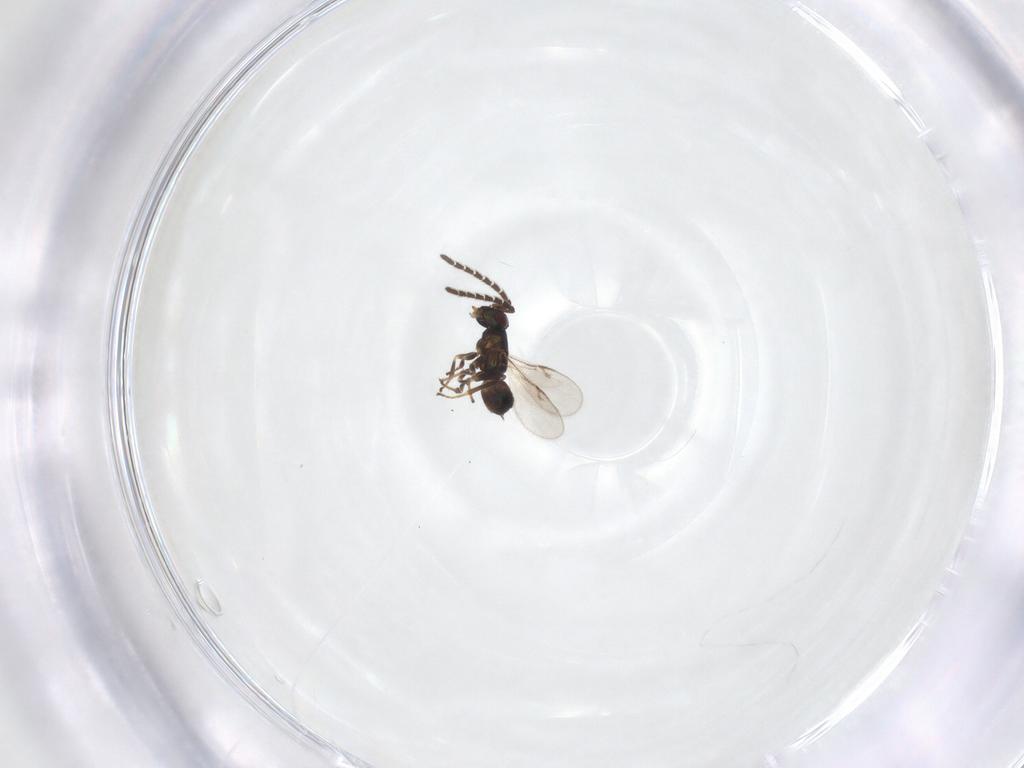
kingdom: Animalia
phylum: Arthropoda
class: Insecta
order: Hymenoptera
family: Encyrtidae
